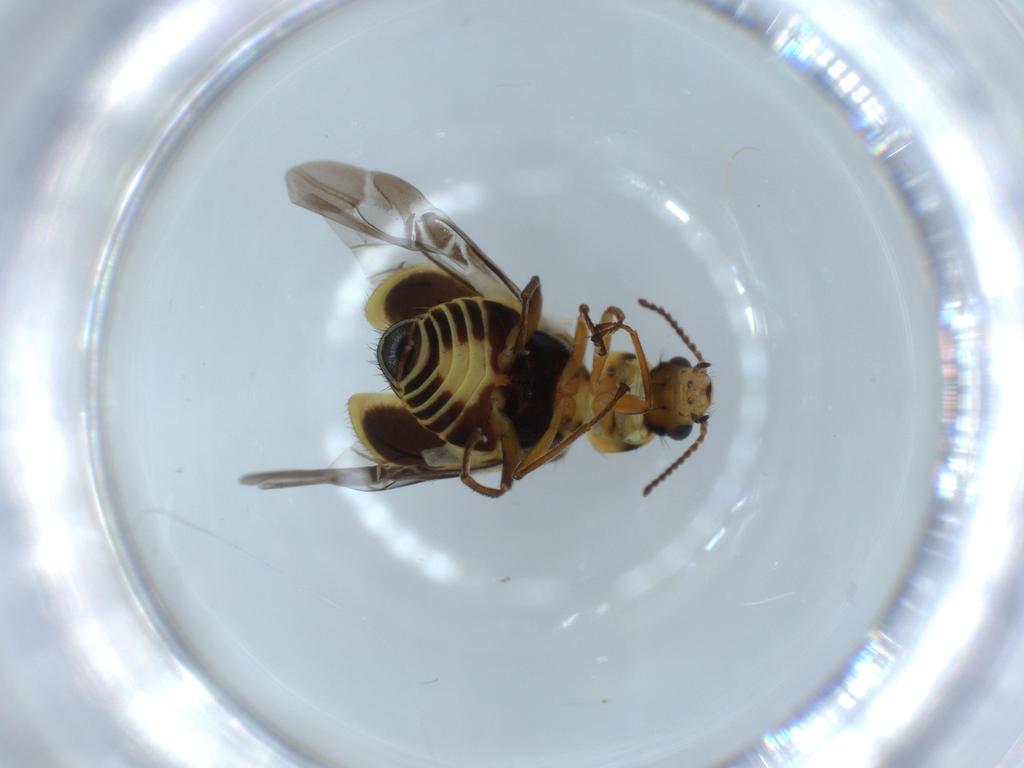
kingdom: Animalia
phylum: Arthropoda
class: Insecta
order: Coleoptera
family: Melyridae
